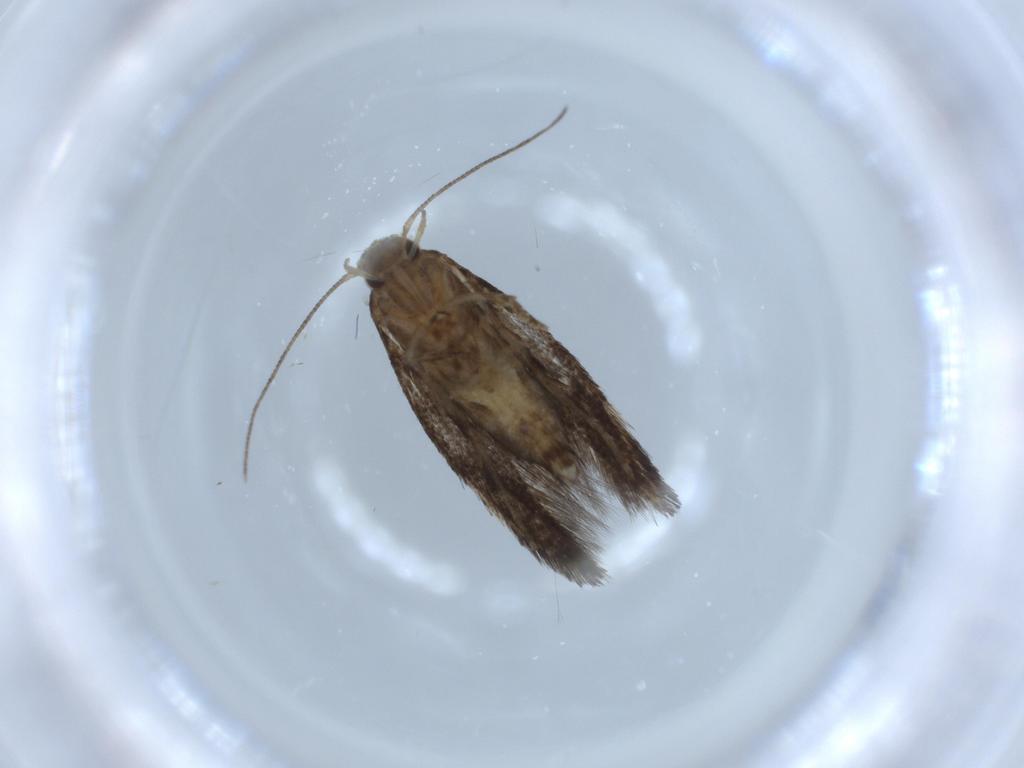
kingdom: Animalia
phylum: Arthropoda
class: Insecta
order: Lepidoptera
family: Gelechiidae
